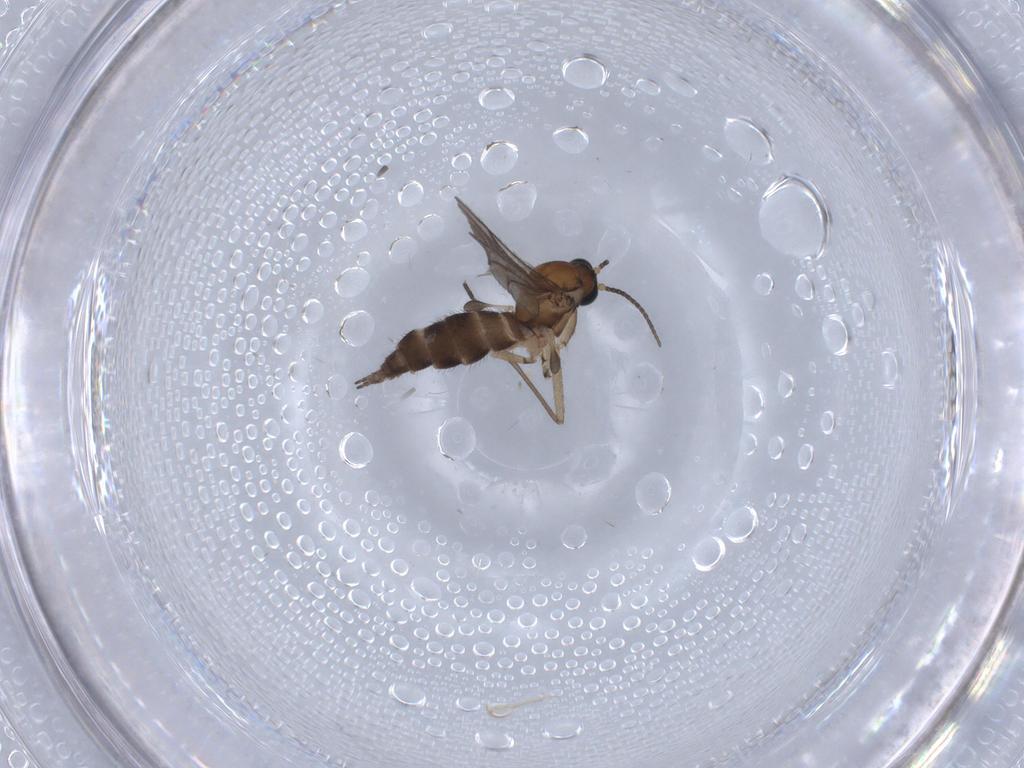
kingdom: Animalia
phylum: Arthropoda
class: Insecta
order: Diptera
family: Sciaridae
